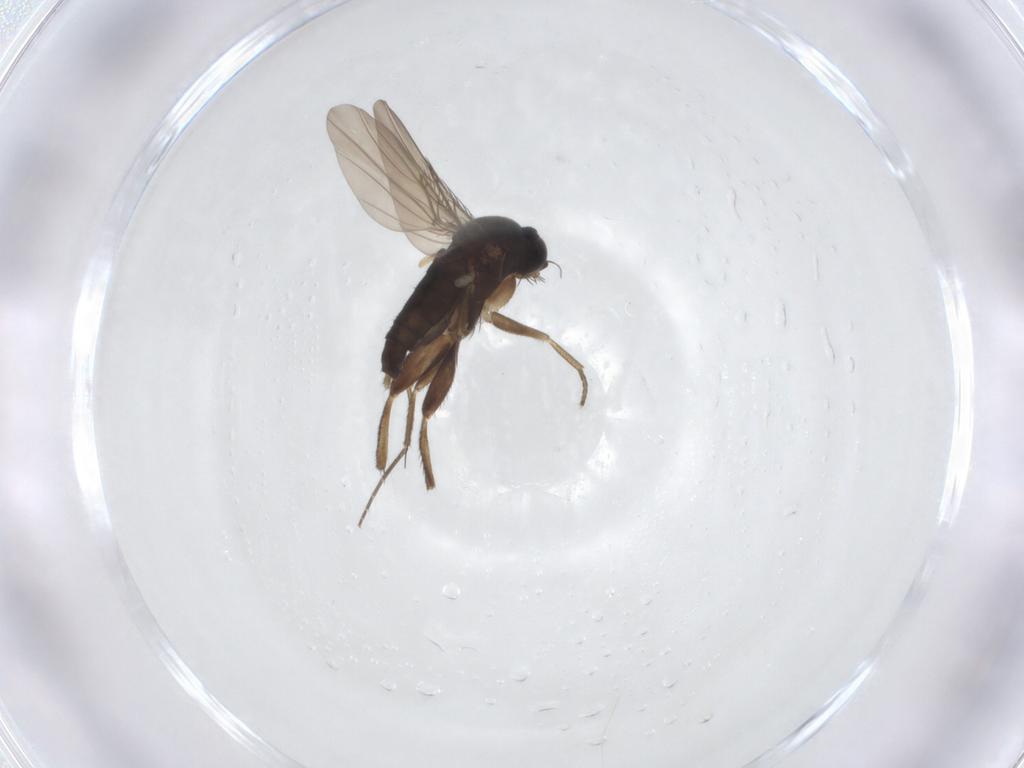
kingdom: Animalia
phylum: Arthropoda
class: Insecta
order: Diptera
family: Phoridae
